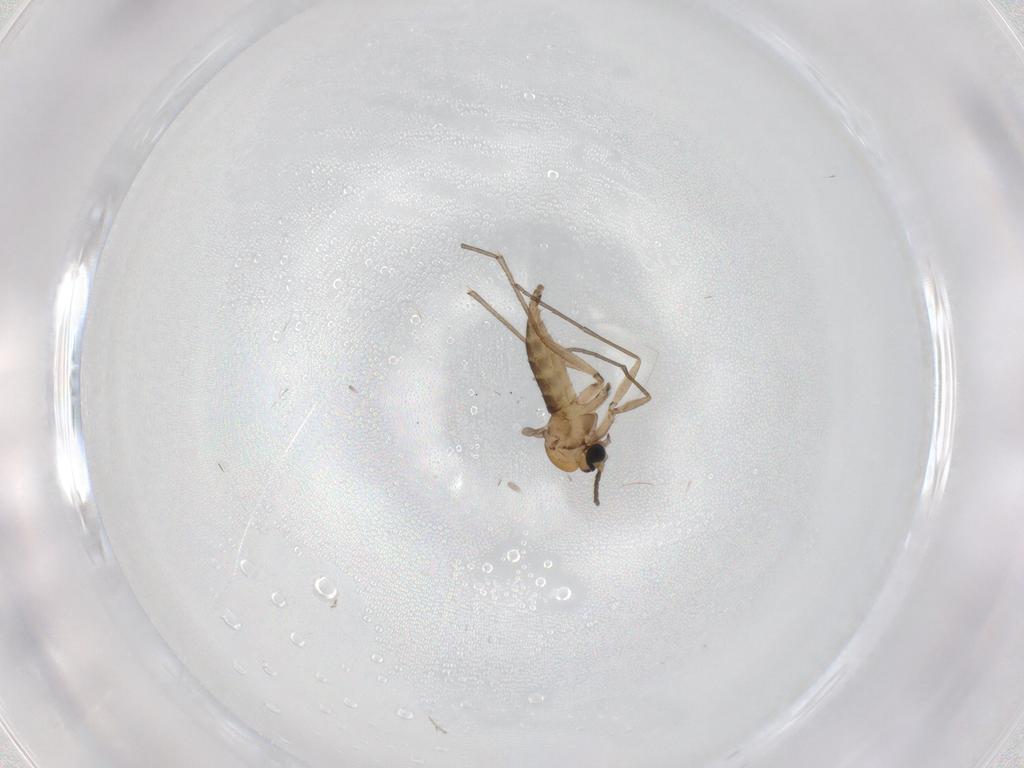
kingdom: Animalia
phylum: Arthropoda
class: Insecta
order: Diptera
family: Sciaridae
